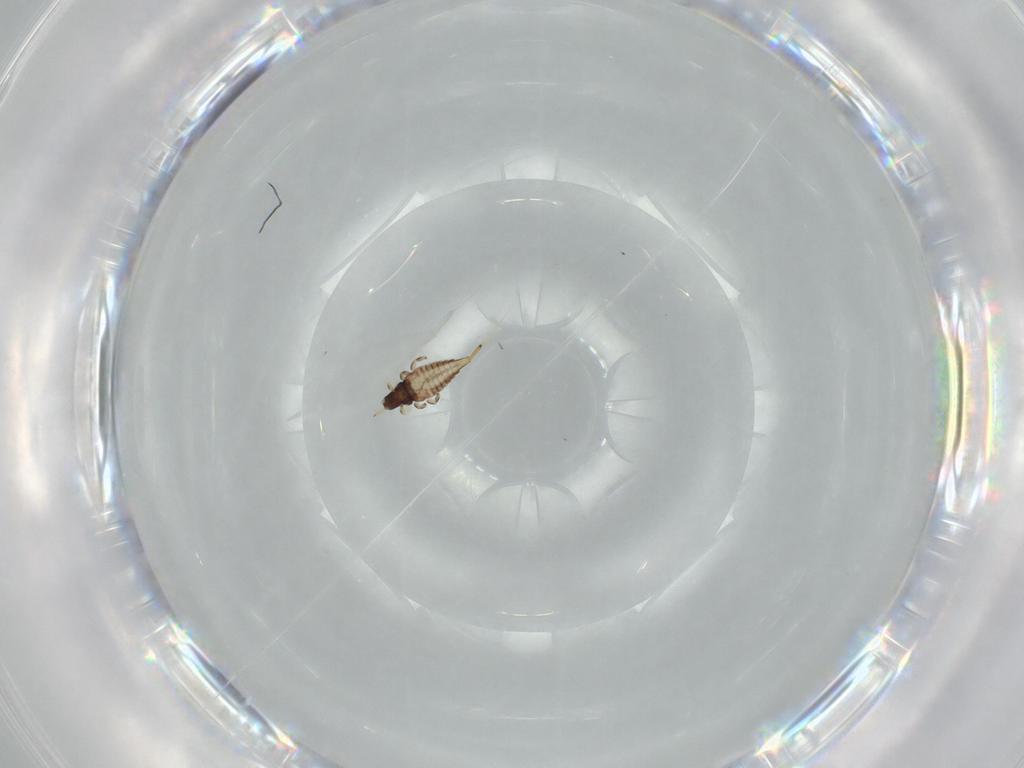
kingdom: Animalia
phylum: Arthropoda
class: Insecta
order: Thysanoptera
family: Phlaeothripidae
